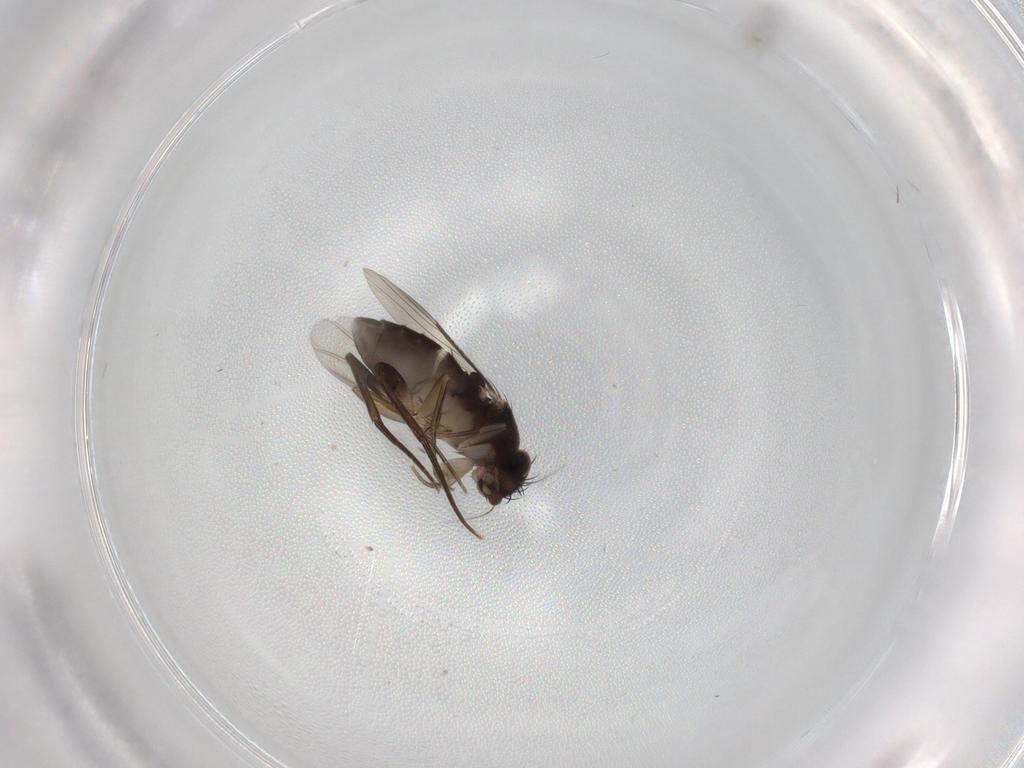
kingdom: Animalia
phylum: Arthropoda
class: Insecta
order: Diptera
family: Phoridae
